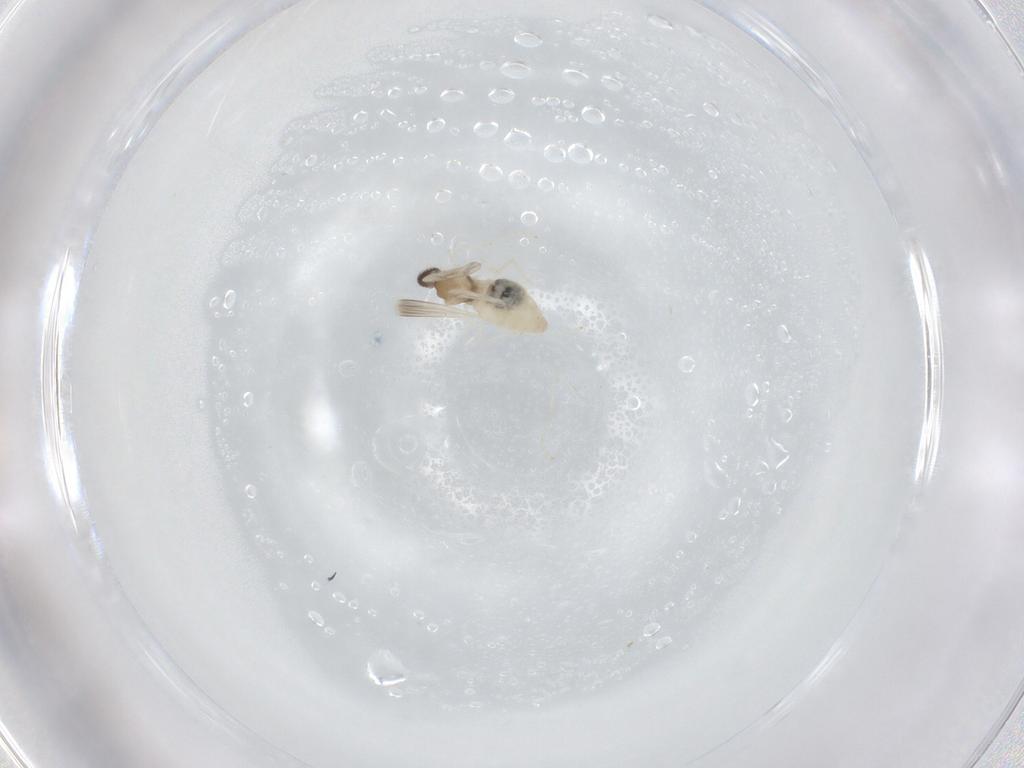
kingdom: Animalia
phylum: Arthropoda
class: Insecta
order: Diptera
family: Cecidomyiidae
